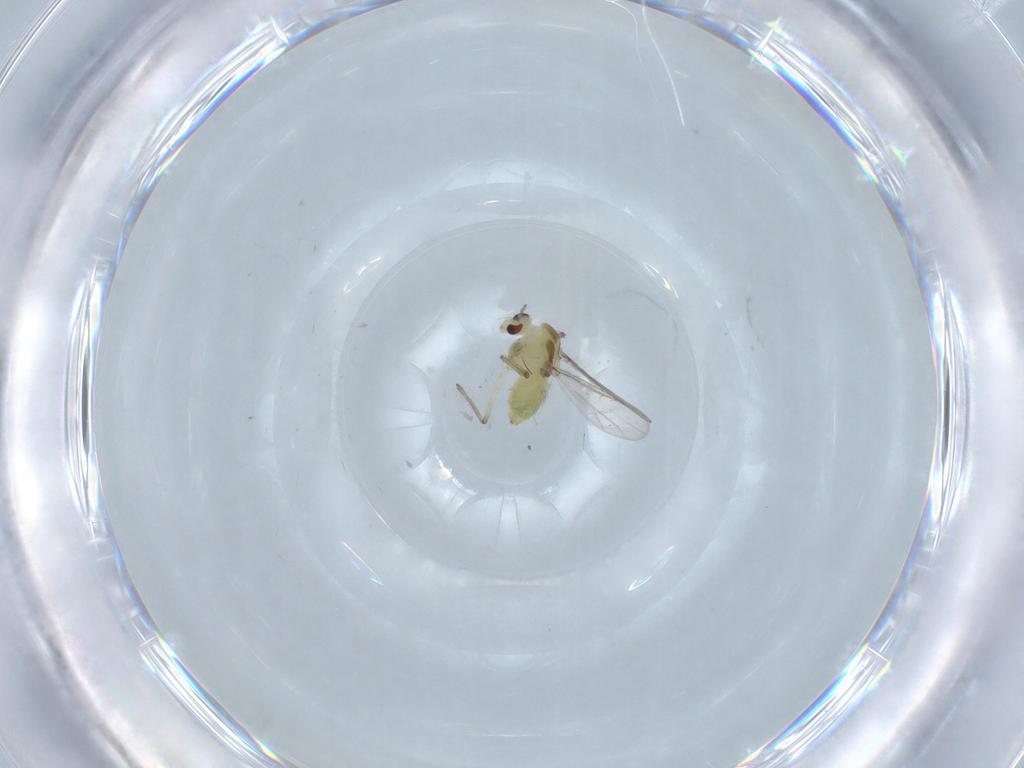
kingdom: Animalia
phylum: Arthropoda
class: Insecta
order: Diptera
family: Chironomidae
